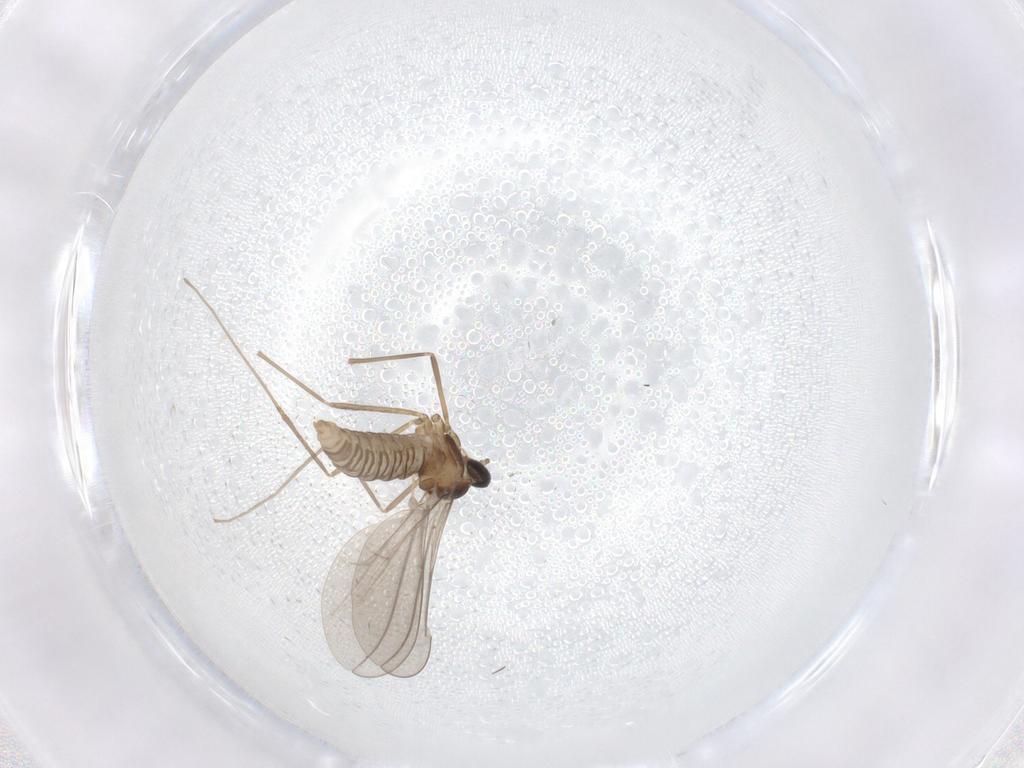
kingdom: Animalia
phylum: Arthropoda
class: Insecta
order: Diptera
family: Cecidomyiidae
